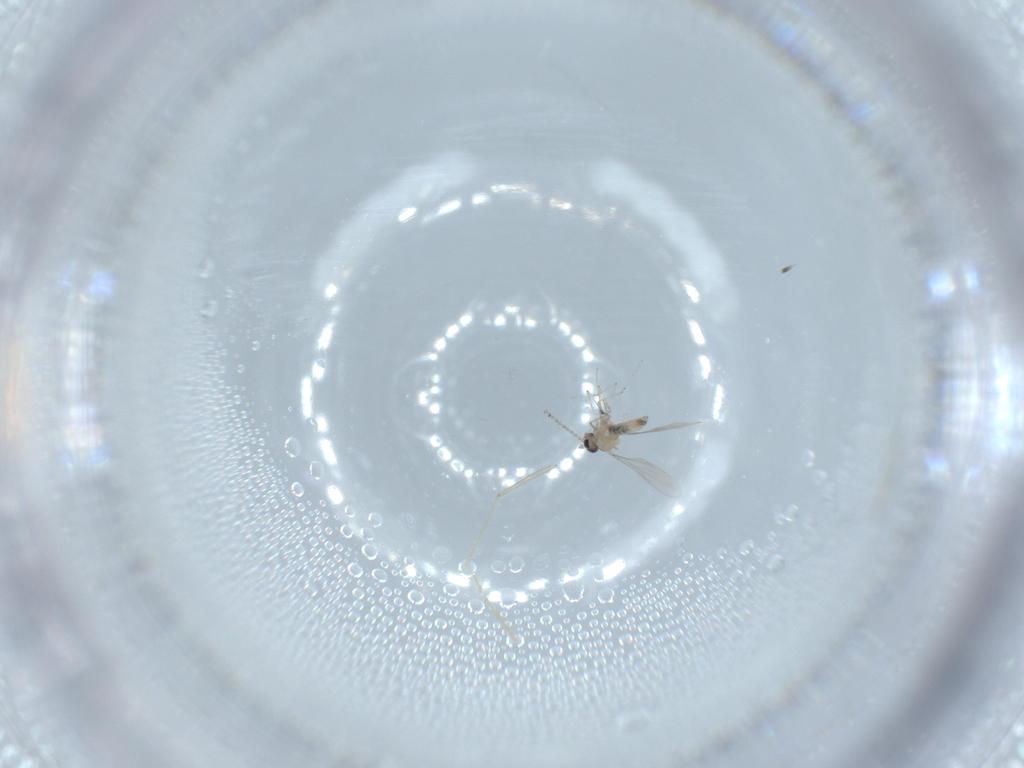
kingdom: Animalia
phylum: Arthropoda
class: Insecta
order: Diptera
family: Cecidomyiidae
